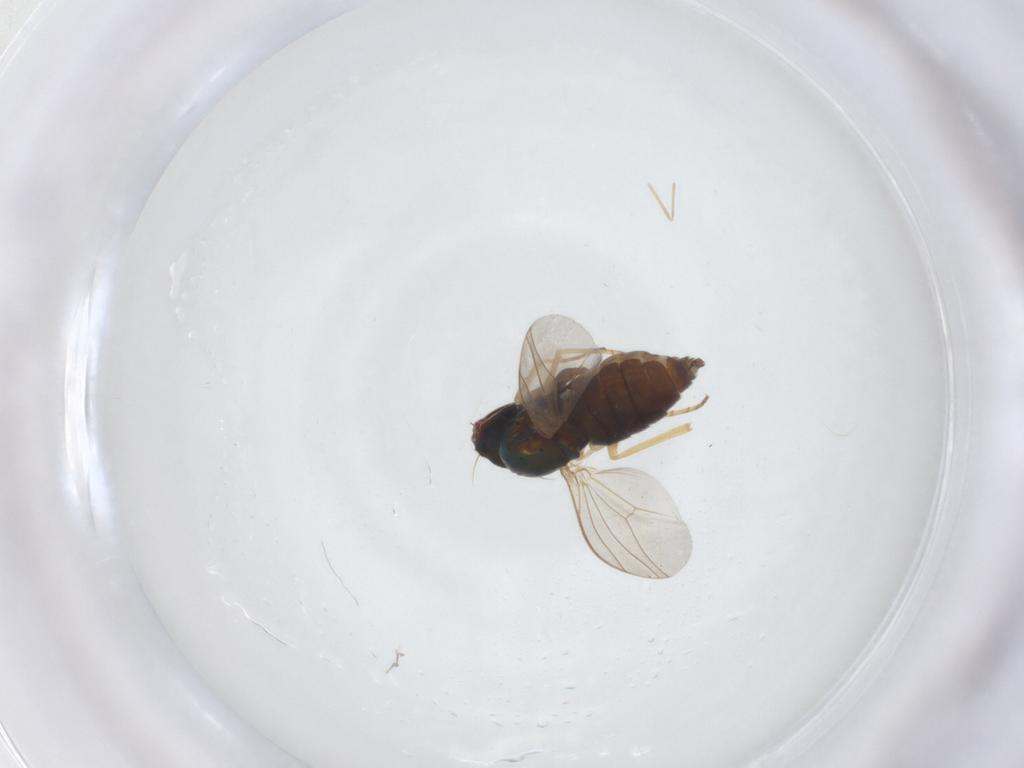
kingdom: Animalia
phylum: Arthropoda
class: Insecta
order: Diptera
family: Dolichopodidae
